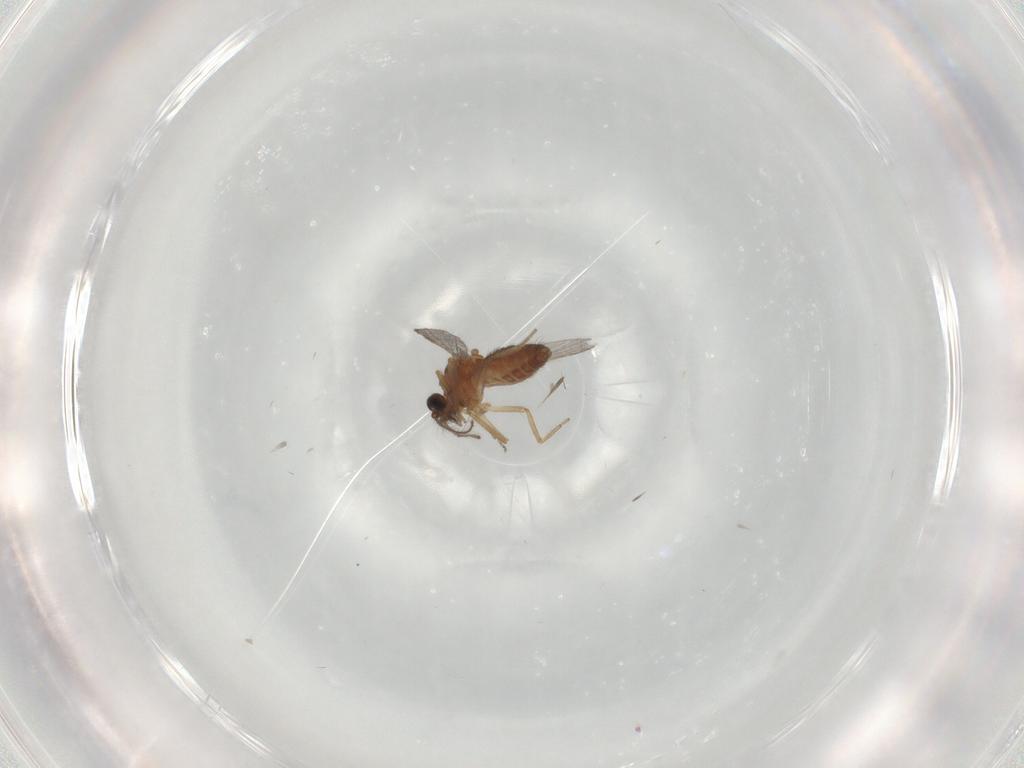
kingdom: Animalia
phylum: Arthropoda
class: Insecta
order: Diptera
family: Ceratopogonidae
